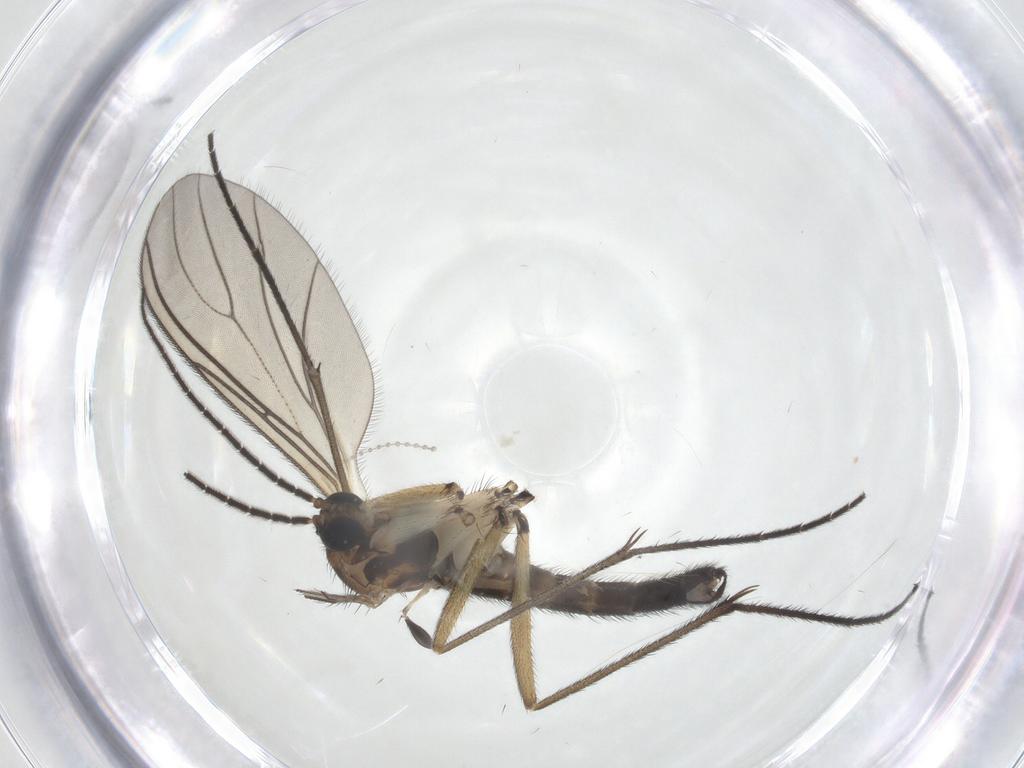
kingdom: Animalia
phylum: Arthropoda
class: Insecta
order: Diptera
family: Sciaridae
